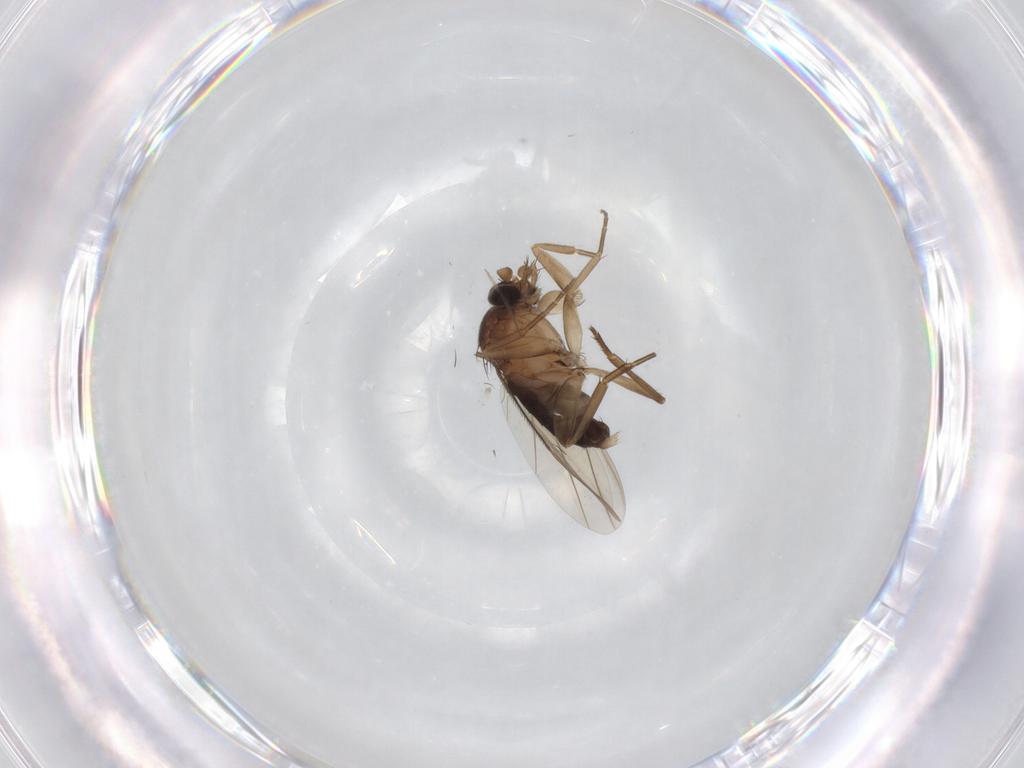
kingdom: Animalia
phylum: Arthropoda
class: Insecta
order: Diptera
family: Phoridae
